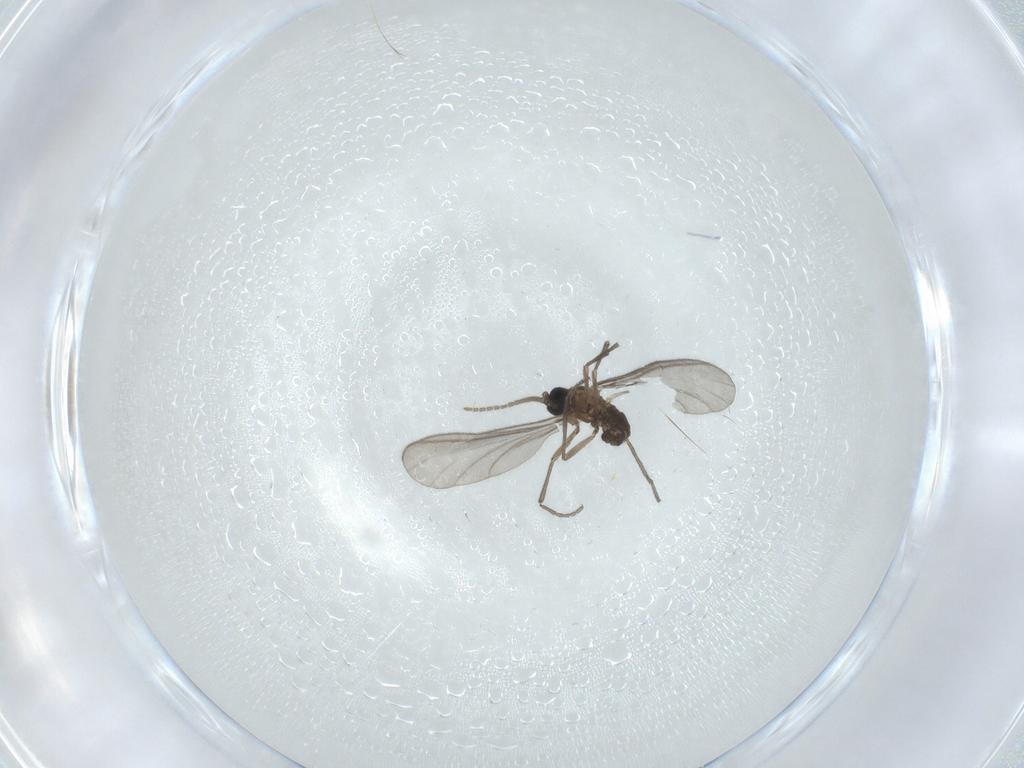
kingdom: Animalia
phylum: Arthropoda
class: Insecta
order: Diptera
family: Sciaridae
